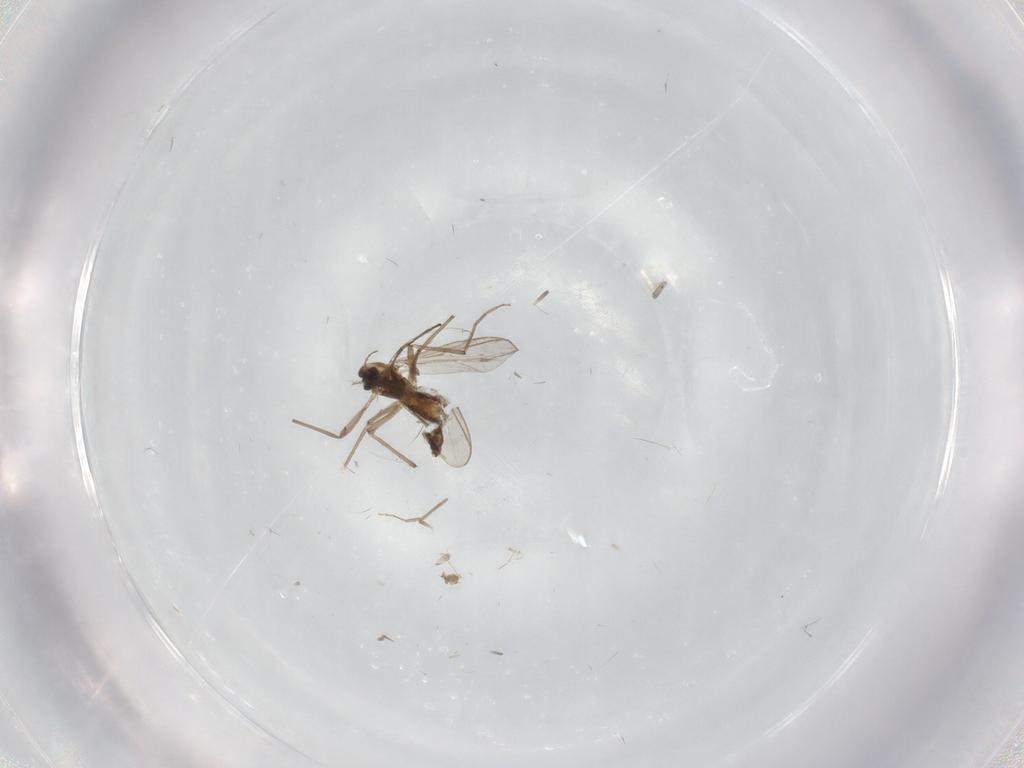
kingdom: Animalia
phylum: Arthropoda
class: Insecta
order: Diptera
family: Chironomidae
